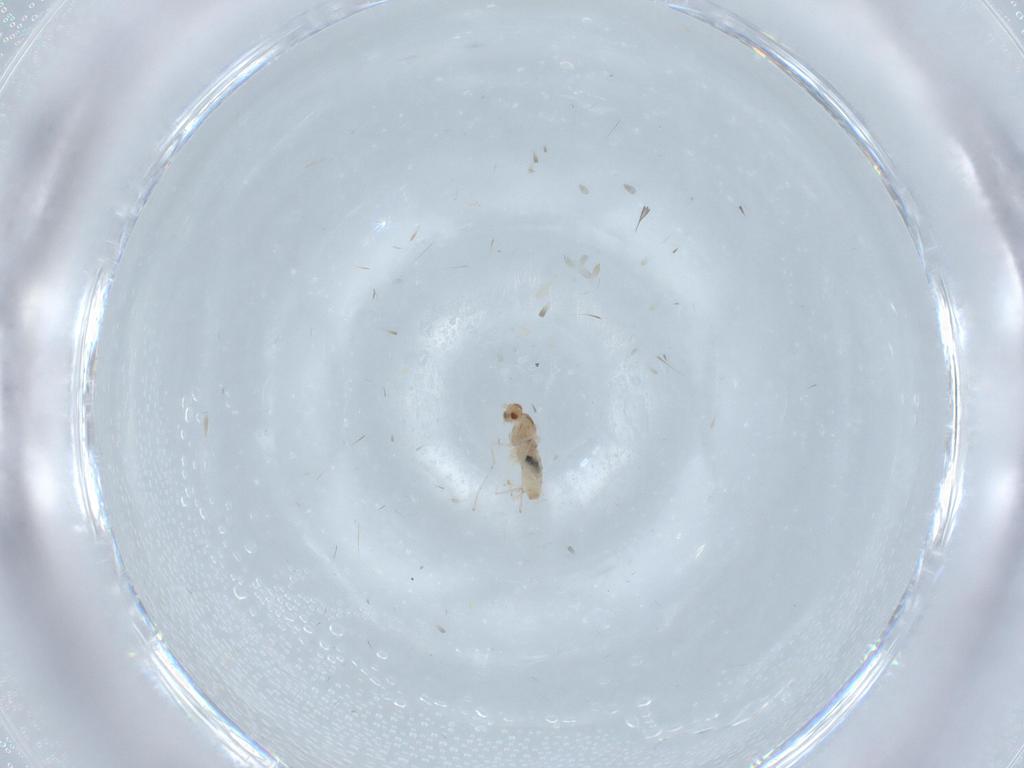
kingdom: Animalia
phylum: Arthropoda
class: Insecta
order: Diptera
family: Cecidomyiidae
